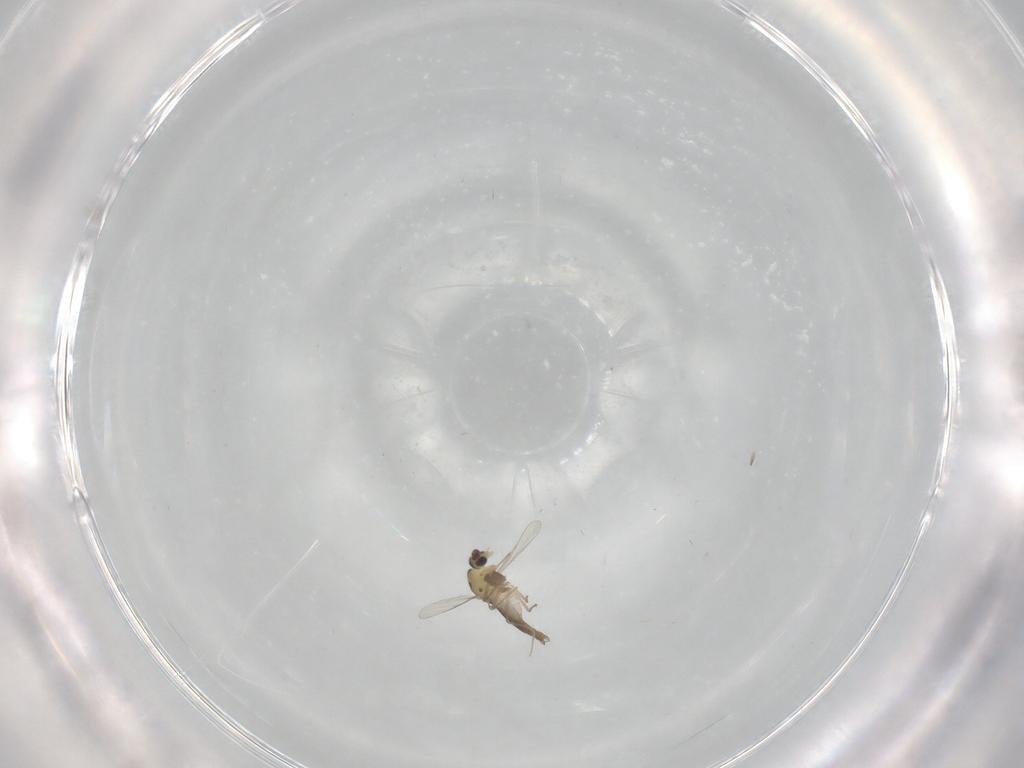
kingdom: Animalia
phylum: Arthropoda
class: Insecta
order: Diptera
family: Chironomidae
